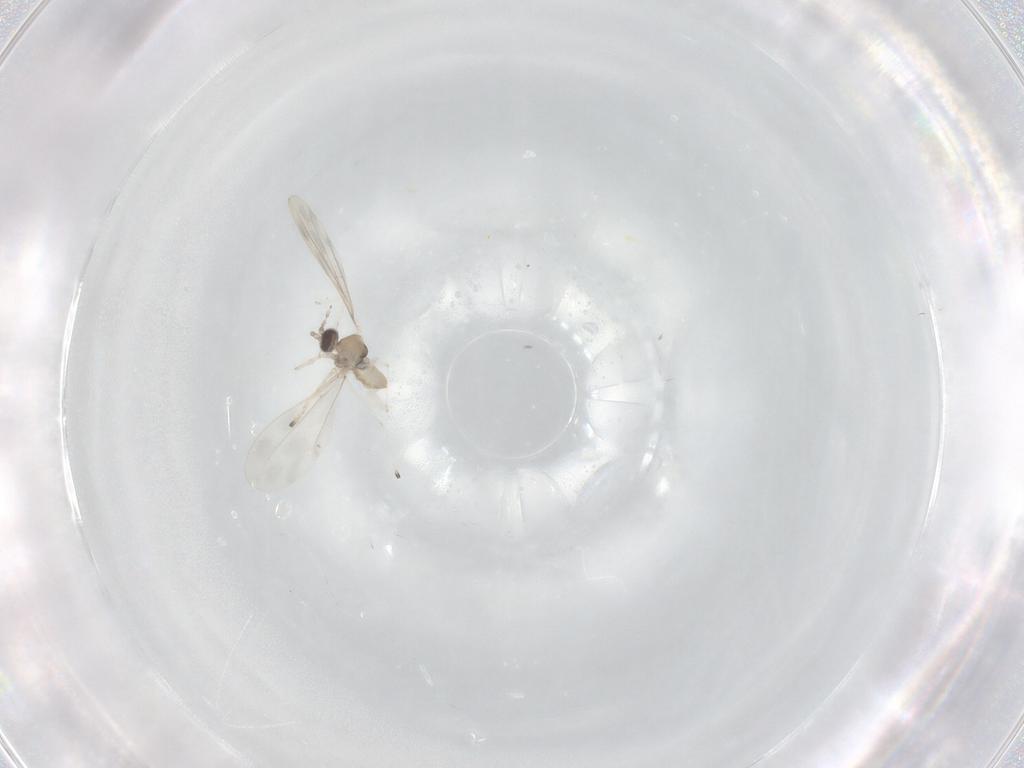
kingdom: Animalia
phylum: Arthropoda
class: Insecta
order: Diptera
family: Cecidomyiidae
